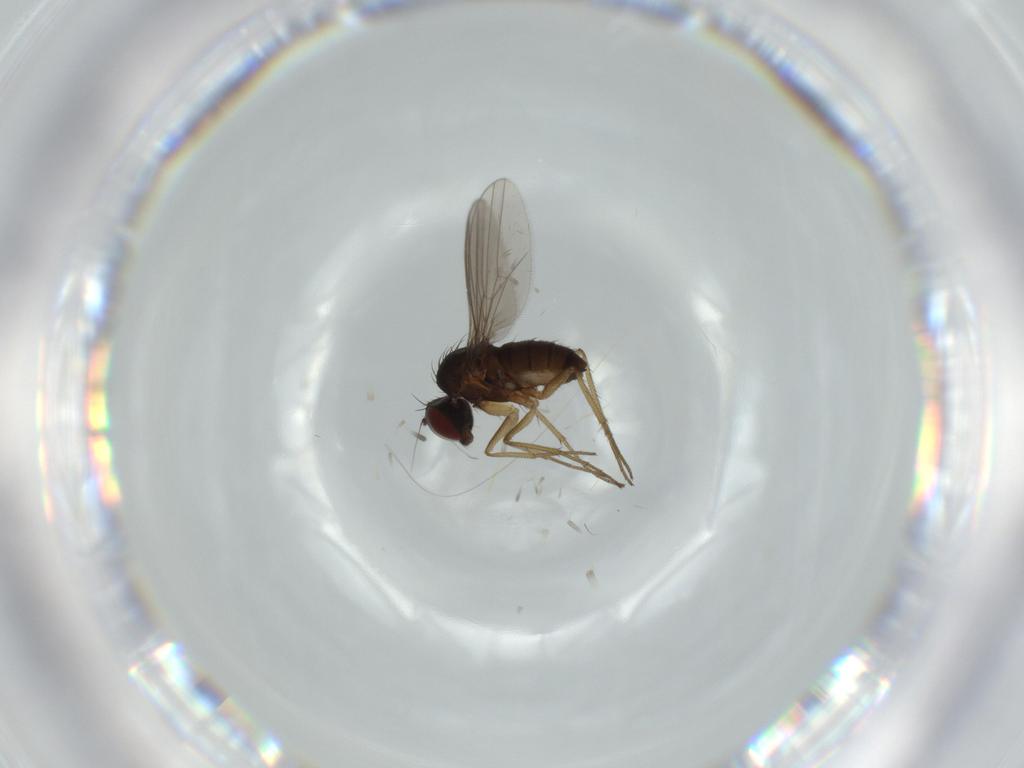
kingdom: Animalia
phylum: Arthropoda
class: Insecta
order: Diptera
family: Dolichopodidae
